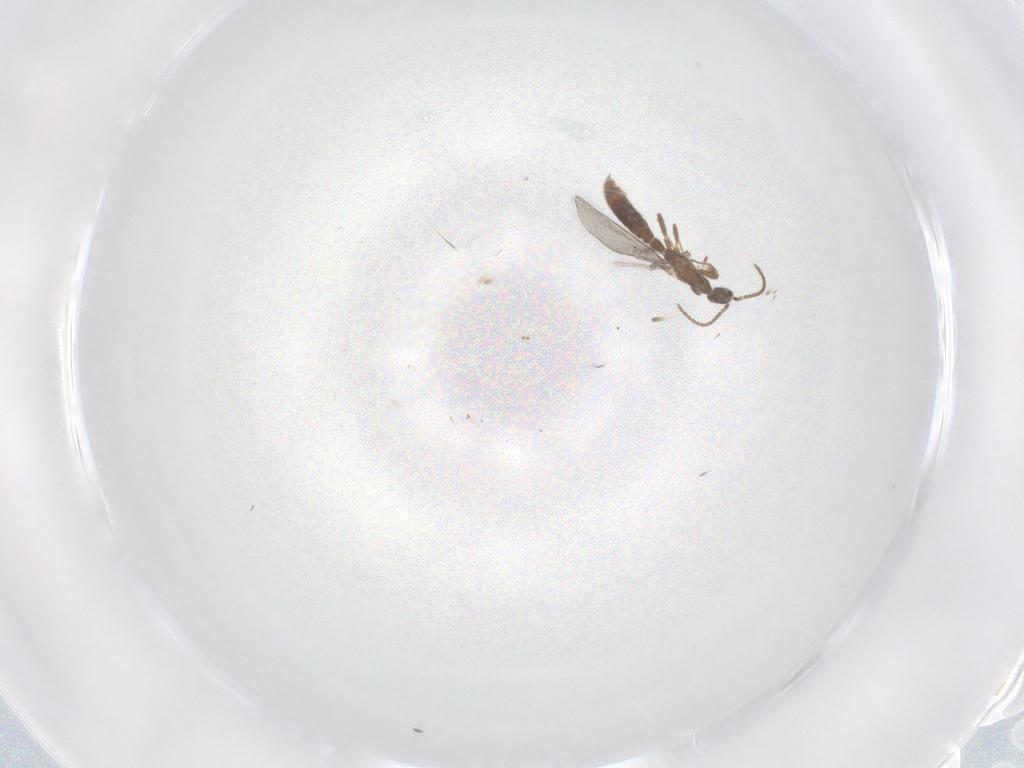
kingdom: Animalia
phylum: Arthropoda
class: Insecta
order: Hymenoptera
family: Formicidae
